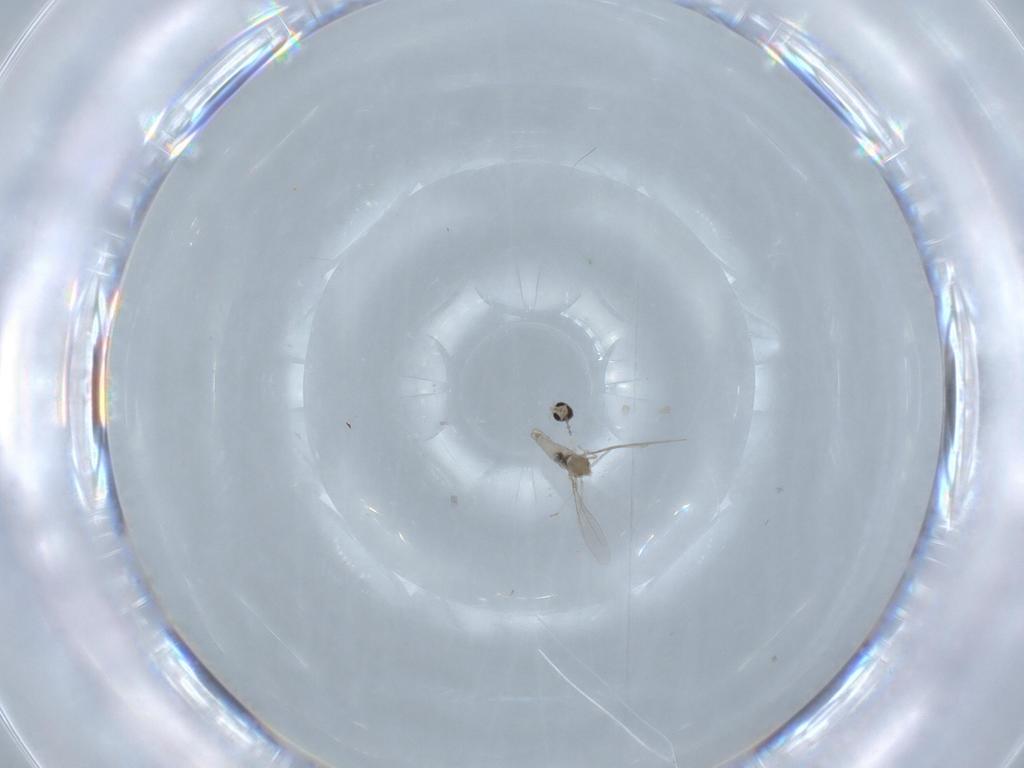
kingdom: Animalia
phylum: Arthropoda
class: Insecta
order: Diptera
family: Cecidomyiidae
